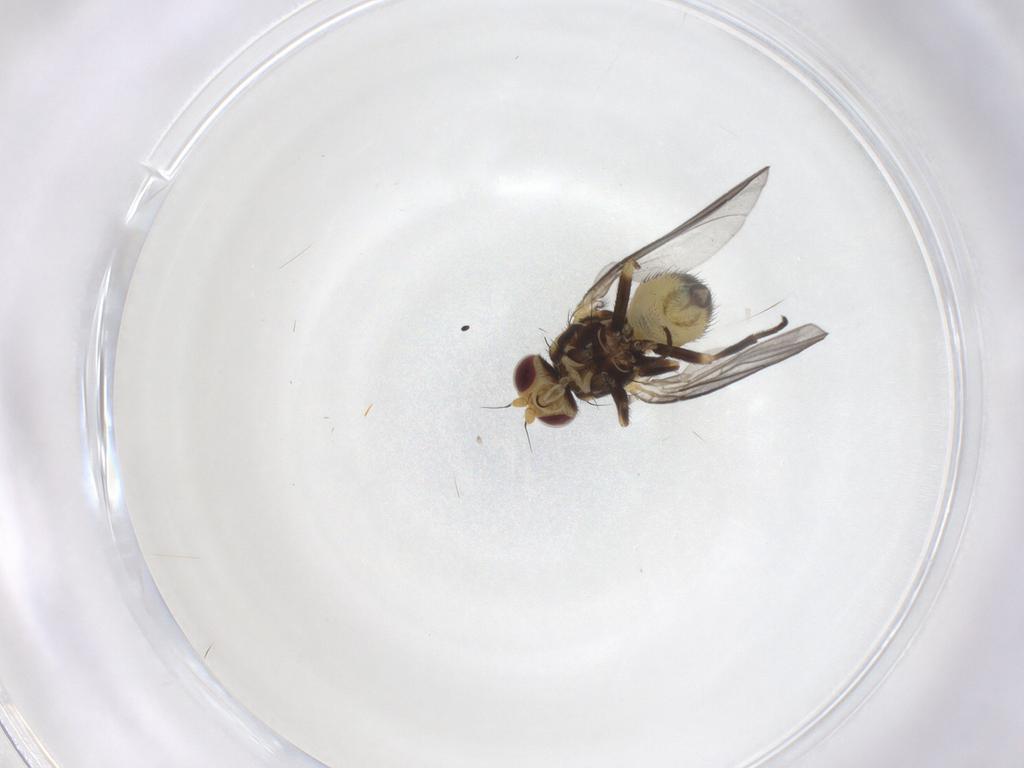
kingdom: Animalia
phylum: Arthropoda
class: Insecta
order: Diptera
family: Agromyzidae
